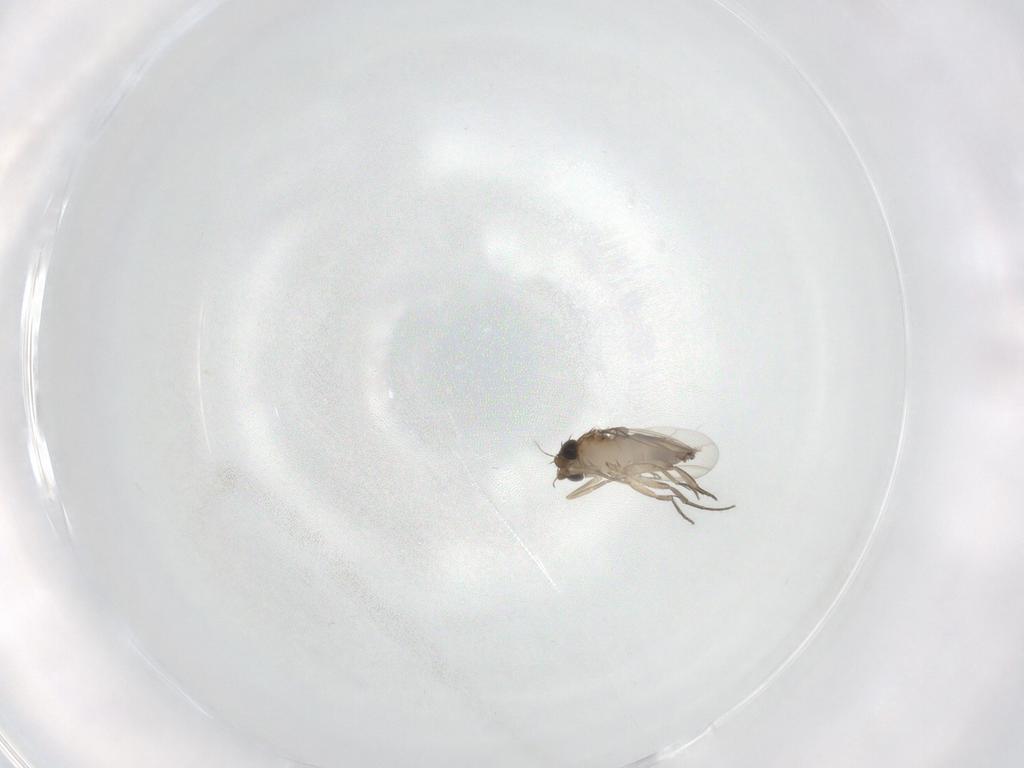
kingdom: Animalia
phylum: Arthropoda
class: Insecta
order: Diptera
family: Phoridae
